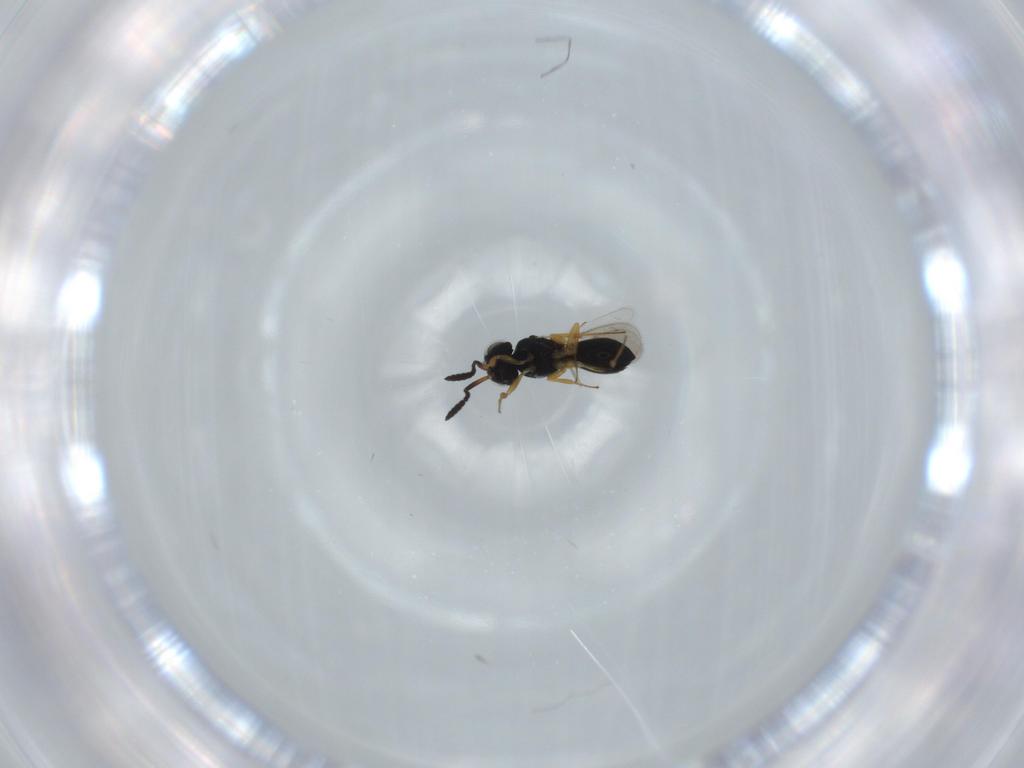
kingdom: Animalia
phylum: Arthropoda
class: Insecta
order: Hymenoptera
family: Scelionidae
